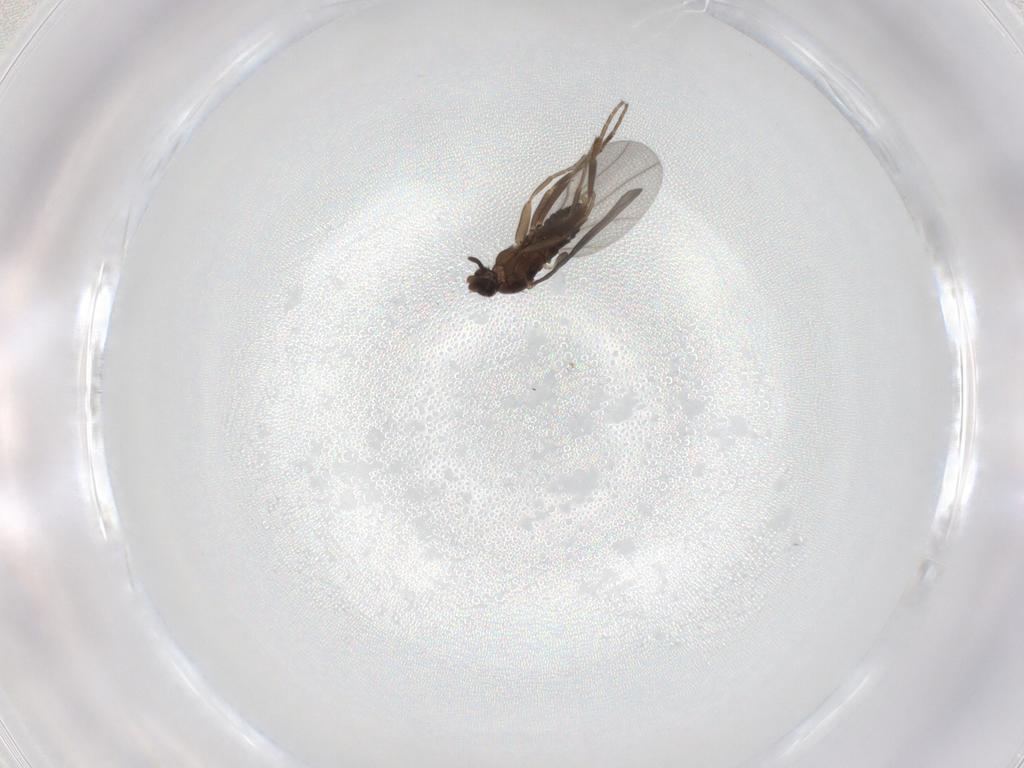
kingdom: Animalia
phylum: Arthropoda
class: Insecta
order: Diptera
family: Phoridae
